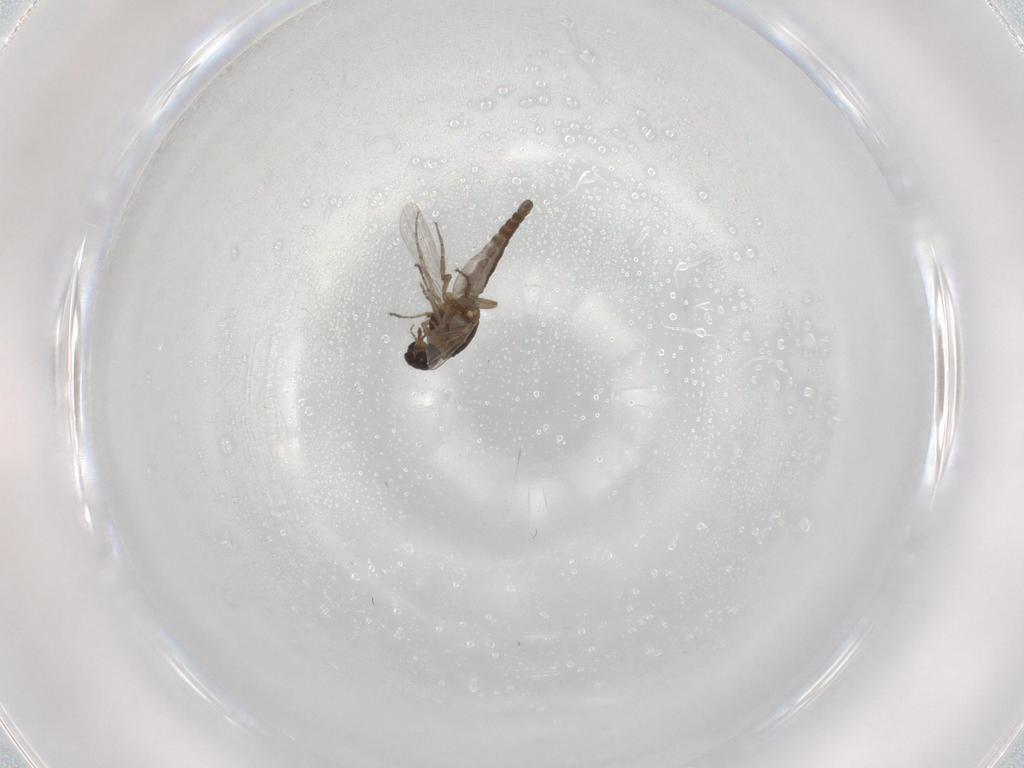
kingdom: Animalia
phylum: Arthropoda
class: Insecta
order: Diptera
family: Ceratopogonidae
